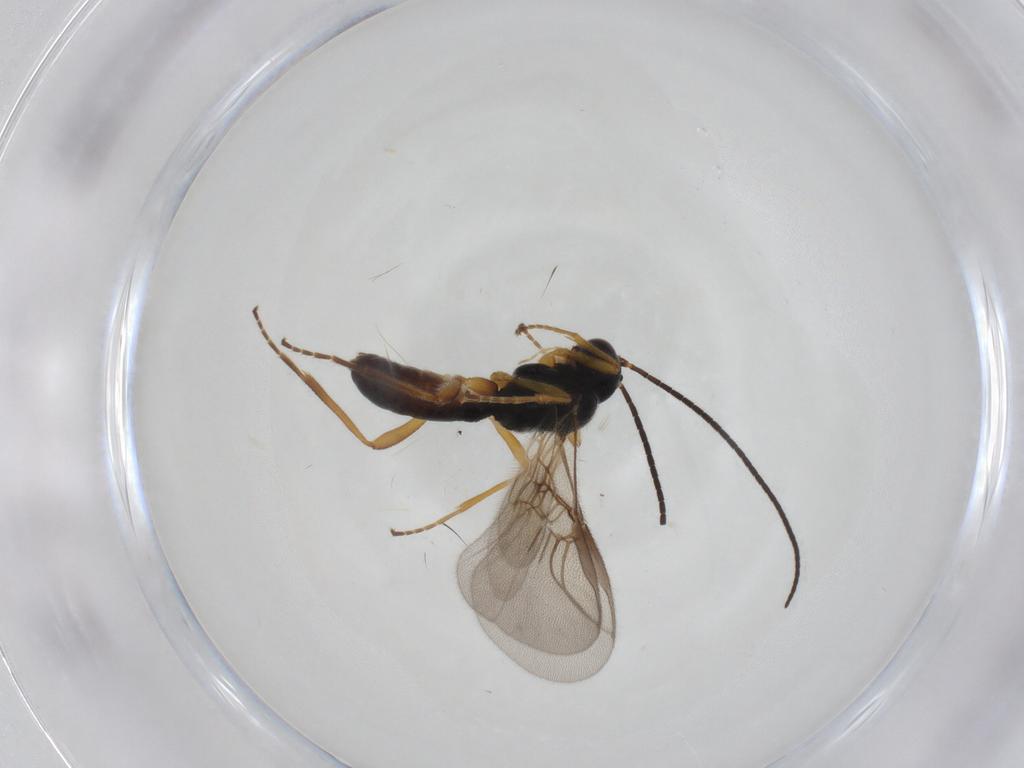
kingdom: Animalia
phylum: Arthropoda
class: Insecta
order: Hymenoptera
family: Braconidae
